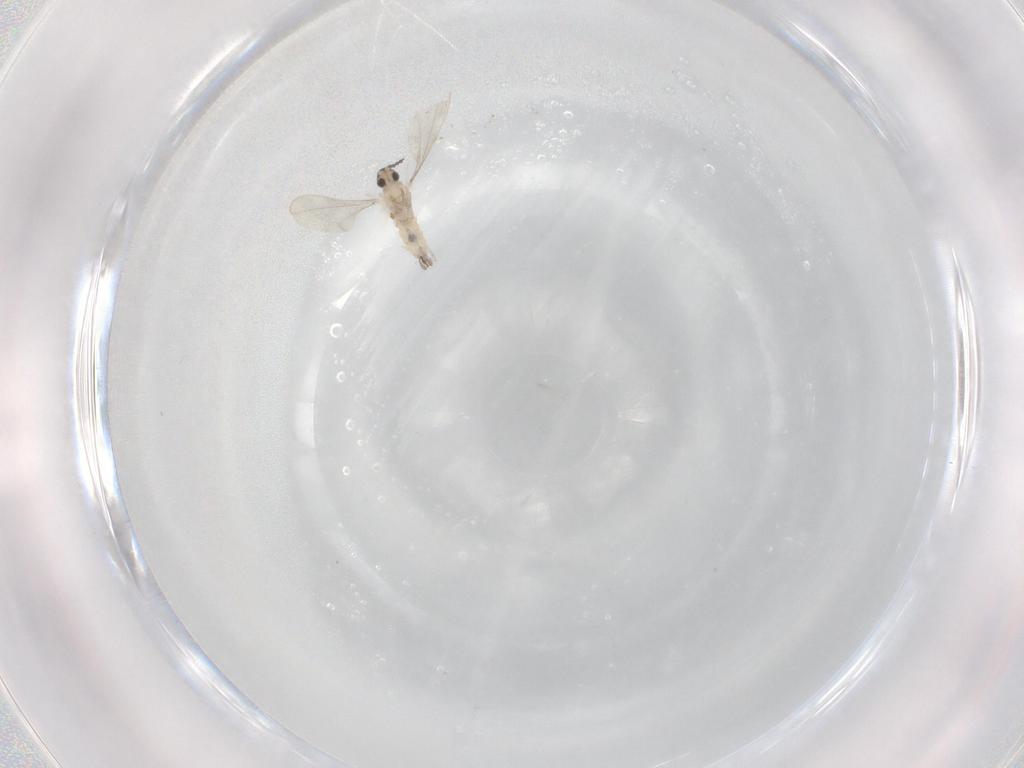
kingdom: Animalia
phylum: Arthropoda
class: Insecta
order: Diptera
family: Cecidomyiidae
